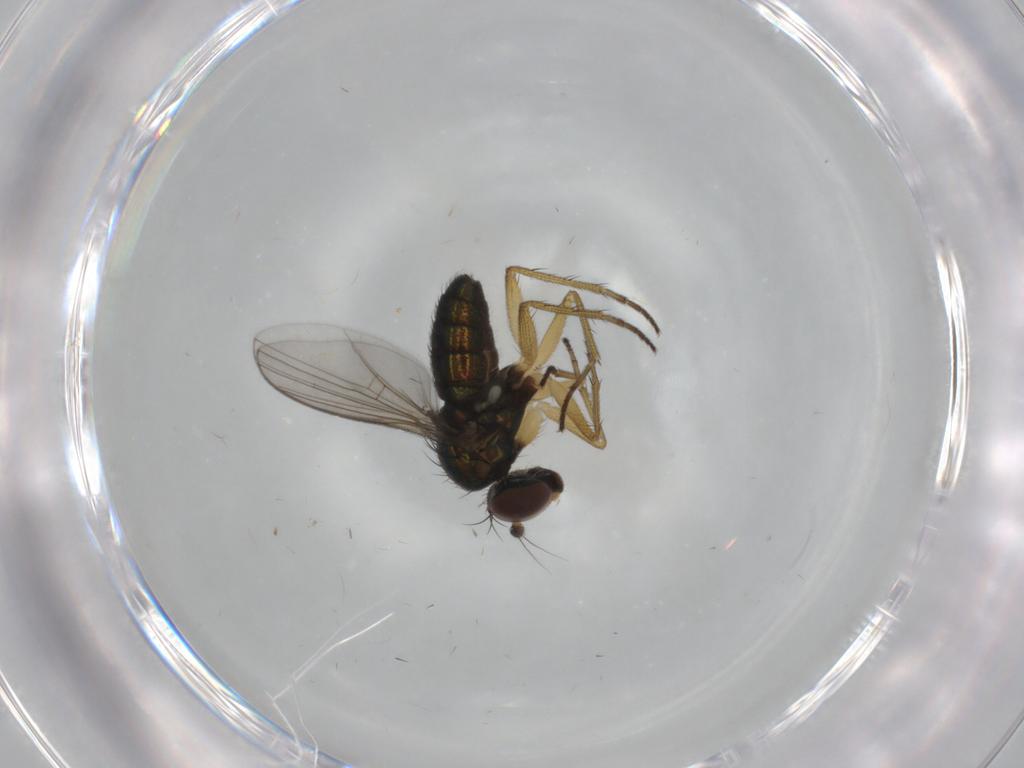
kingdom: Animalia
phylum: Arthropoda
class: Insecta
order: Diptera
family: Dolichopodidae
